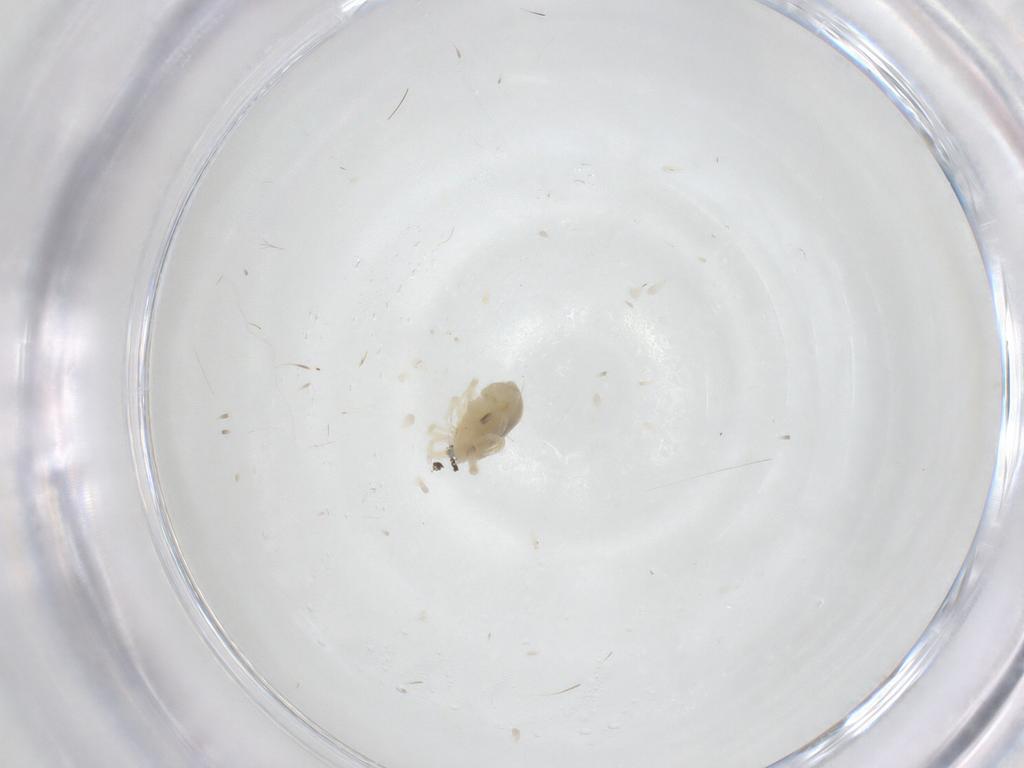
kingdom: Animalia
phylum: Arthropoda
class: Arachnida
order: Trombidiformes
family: Anystidae
